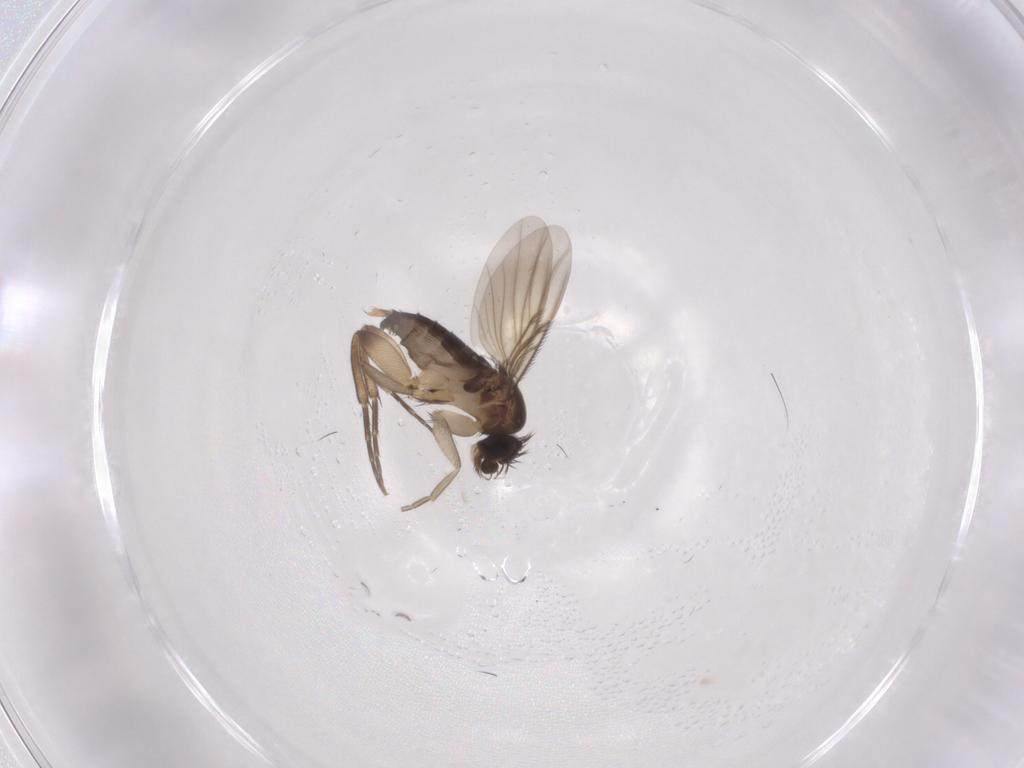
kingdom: Animalia
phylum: Arthropoda
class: Insecta
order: Diptera
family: Phoridae
